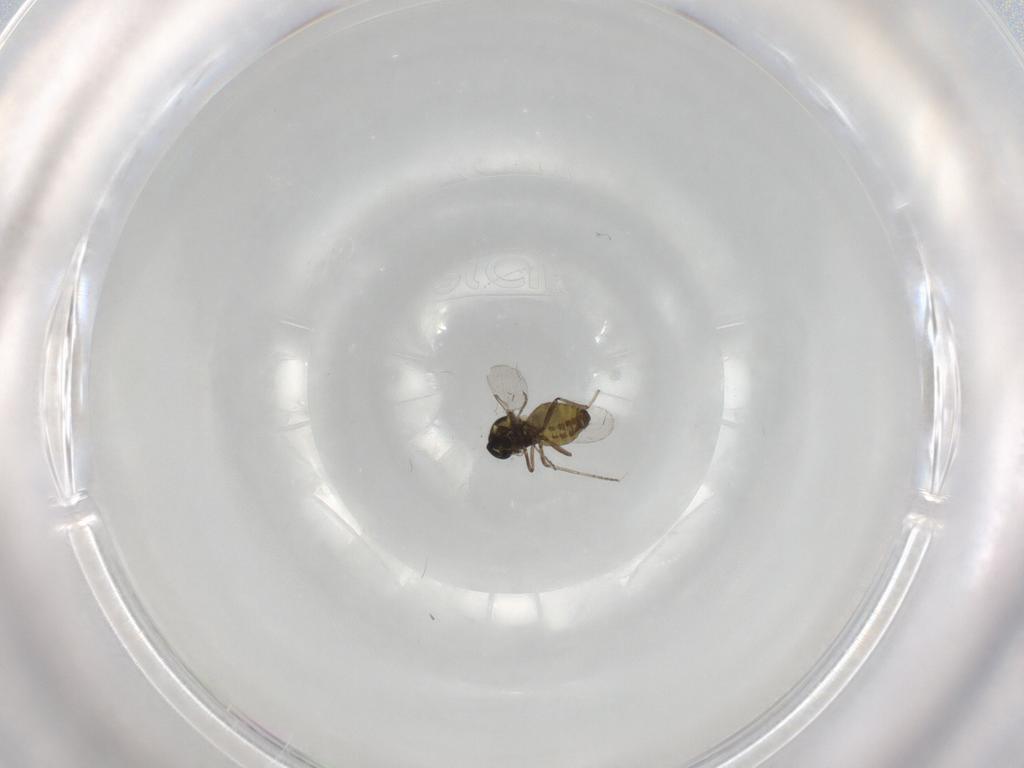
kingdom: Animalia
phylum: Arthropoda
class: Insecta
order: Diptera
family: Ceratopogonidae
